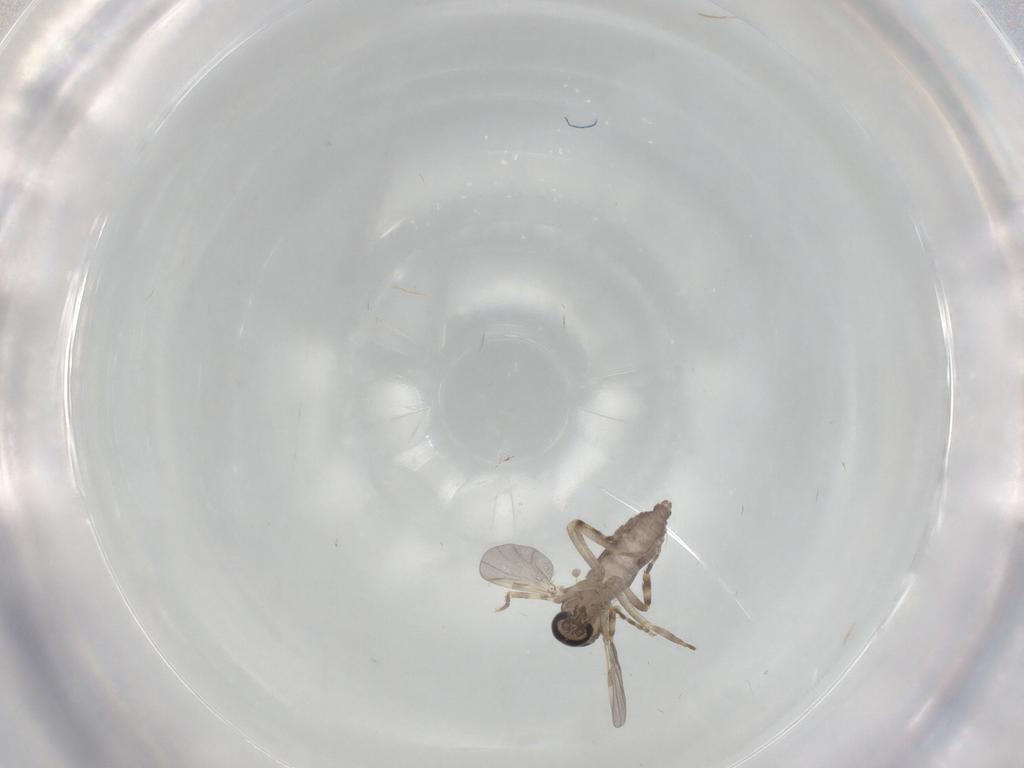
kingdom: Animalia
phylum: Arthropoda
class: Insecta
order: Diptera
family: Ceratopogonidae
